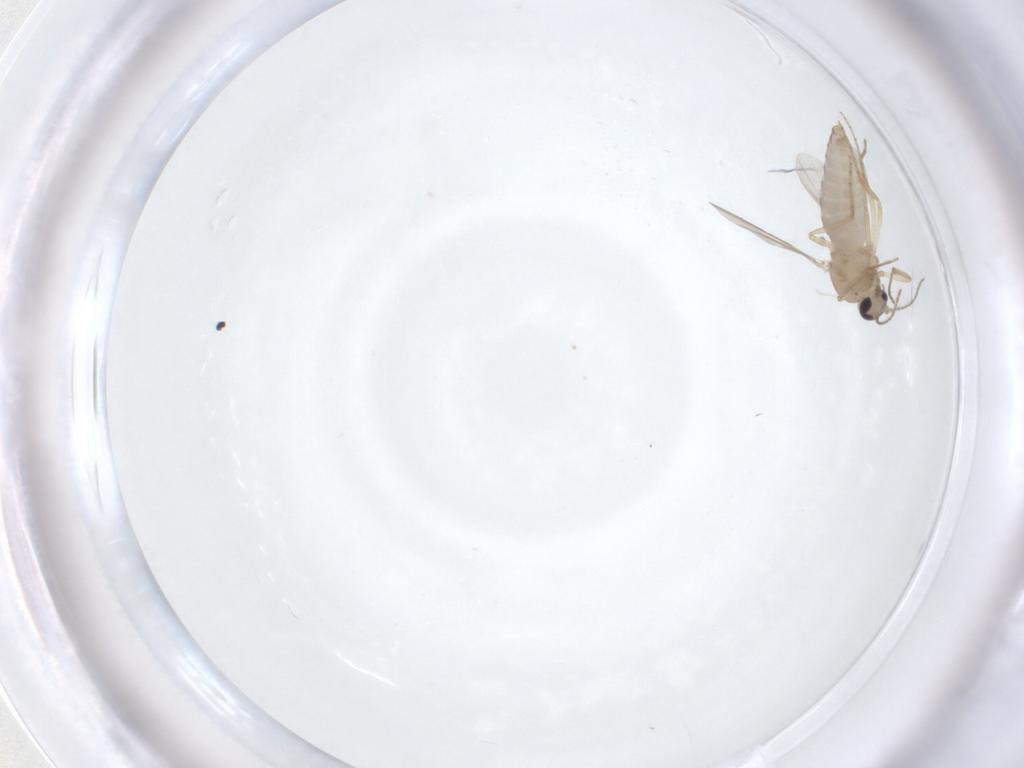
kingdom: Animalia
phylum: Arthropoda
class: Insecta
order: Diptera
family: Ceratopogonidae
